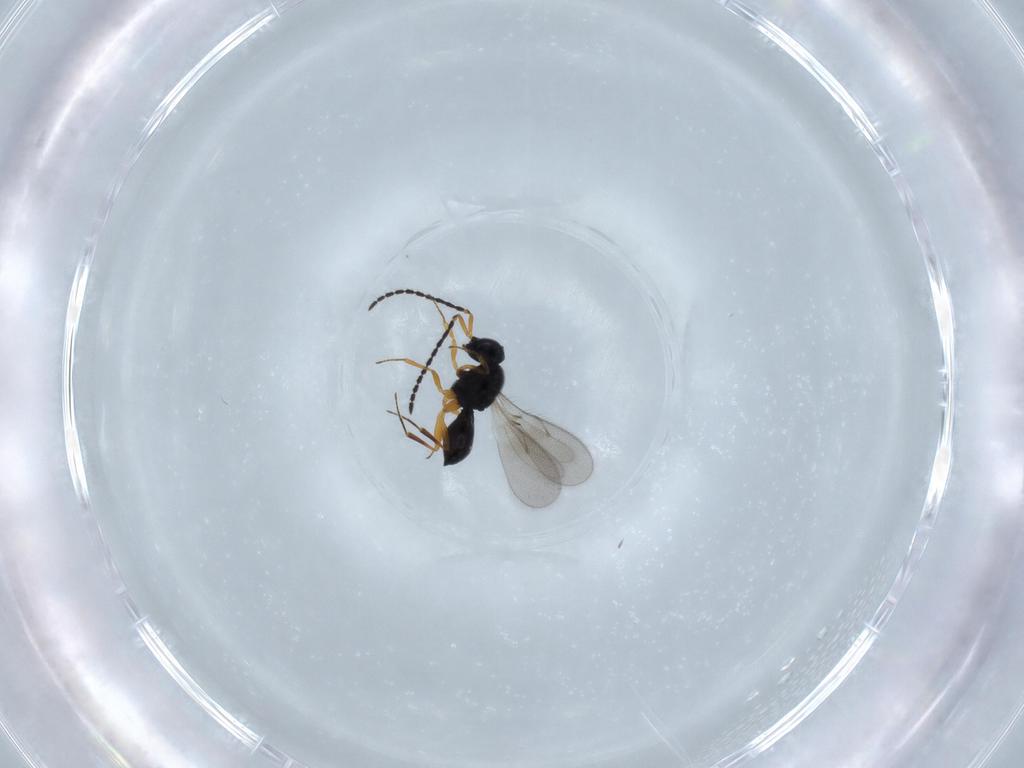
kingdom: Animalia
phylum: Arthropoda
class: Insecta
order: Hymenoptera
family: Scelionidae
